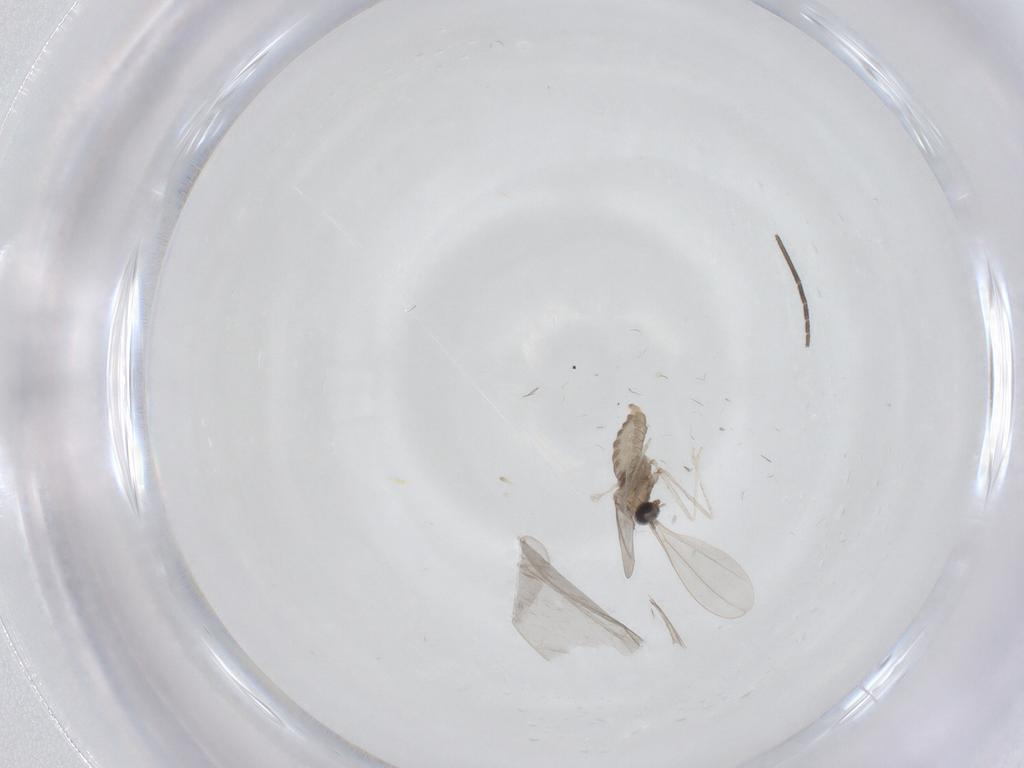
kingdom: Animalia
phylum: Arthropoda
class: Insecta
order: Diptera
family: Cecidomyiidae
